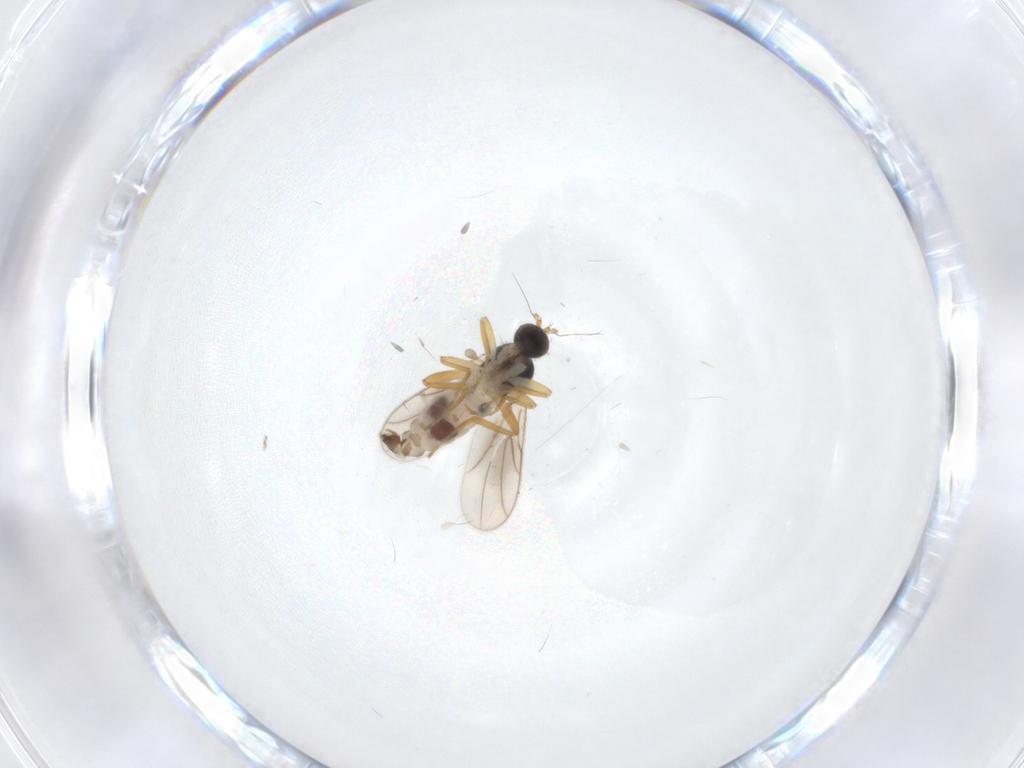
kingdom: Animalia
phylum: Arthropoda
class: Insecta
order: Diptera
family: Phoridae
